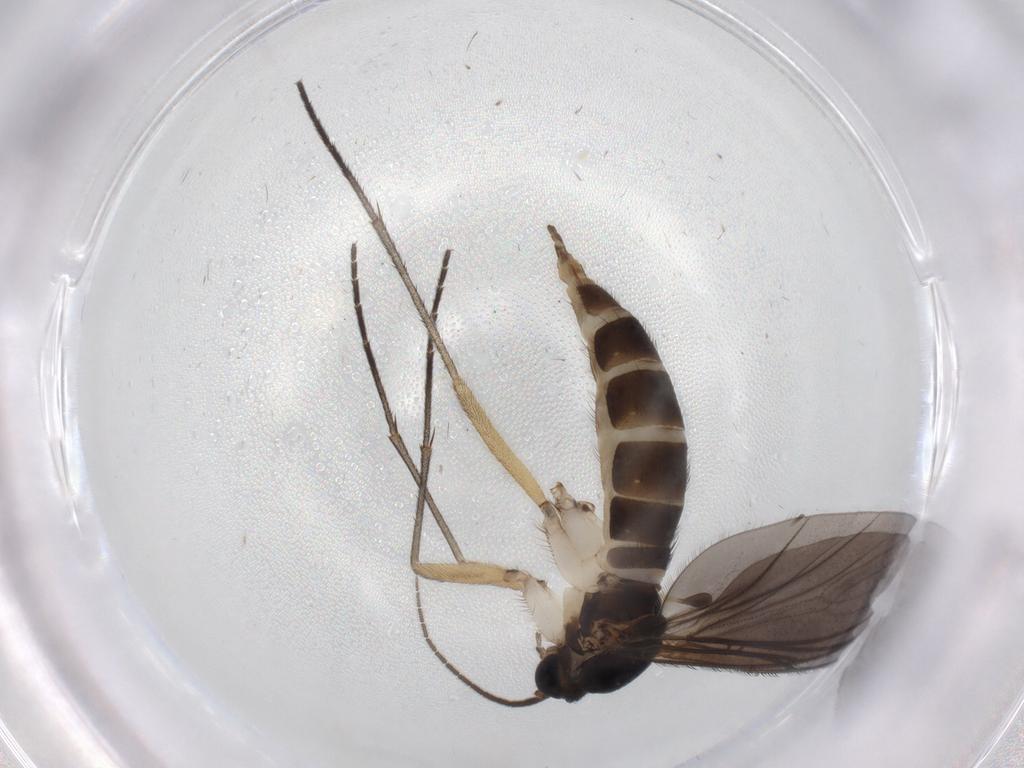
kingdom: Animalia
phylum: Arthropoda
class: Insecta
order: Diptera
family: Sciaridae
